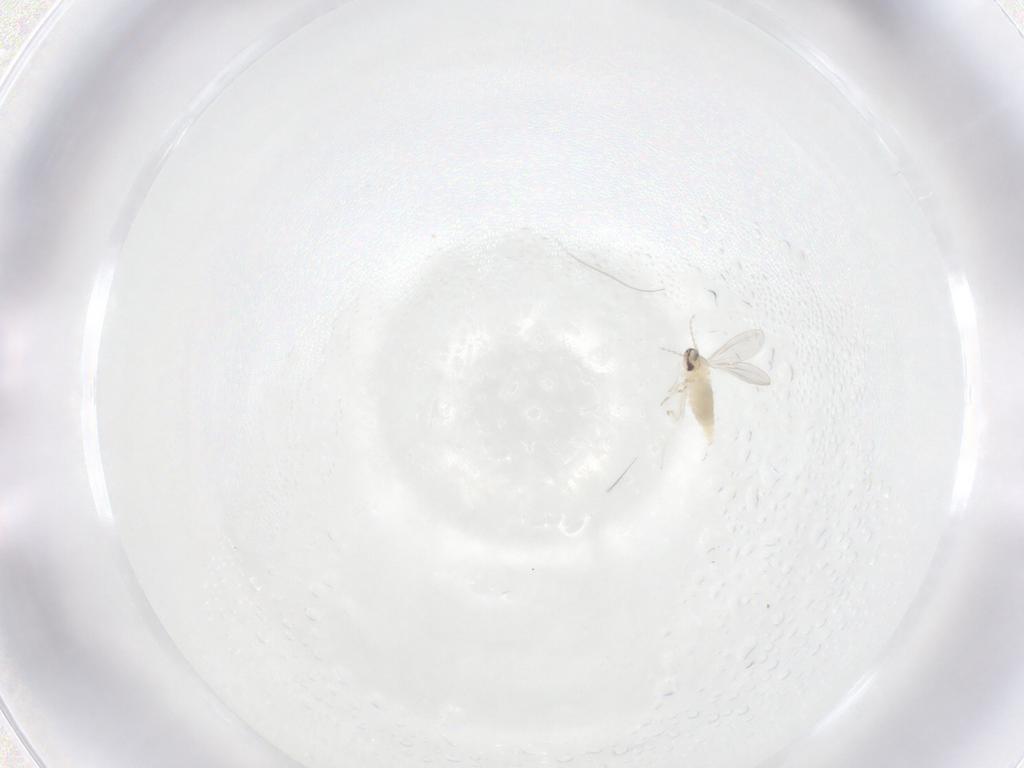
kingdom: Animalia
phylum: Arthropoda
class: Insecta
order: Diptera
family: Cecidomyiidae
